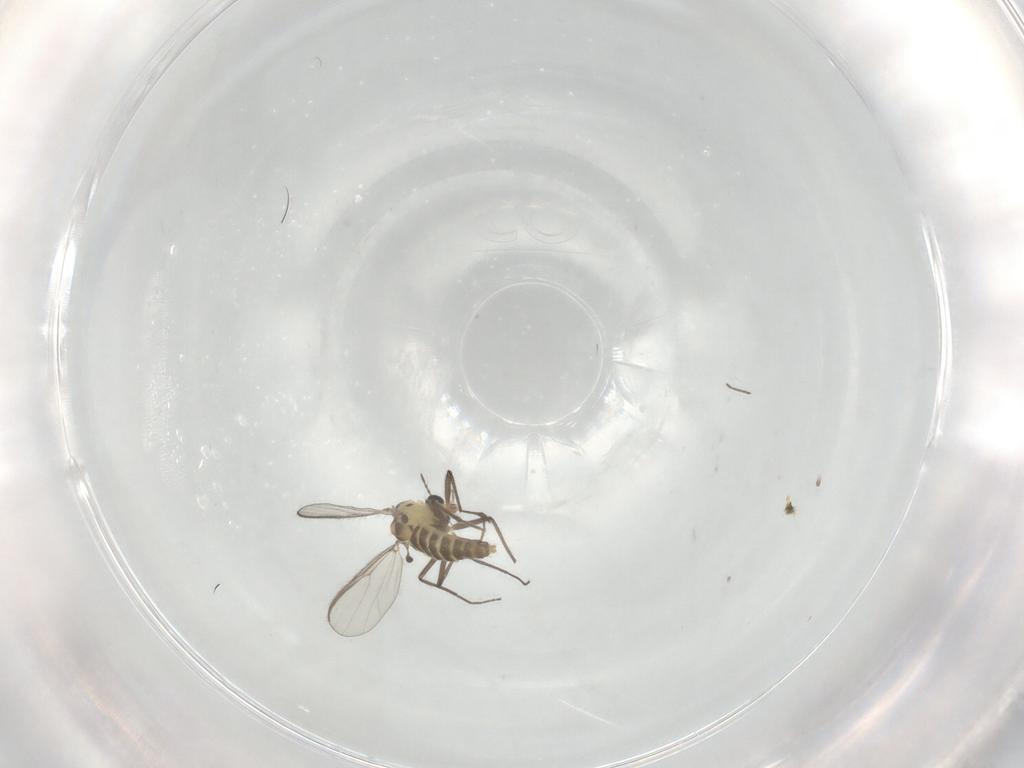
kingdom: Animalia
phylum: Arthropoda
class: Insecta
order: Diptera
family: Chironomidae
